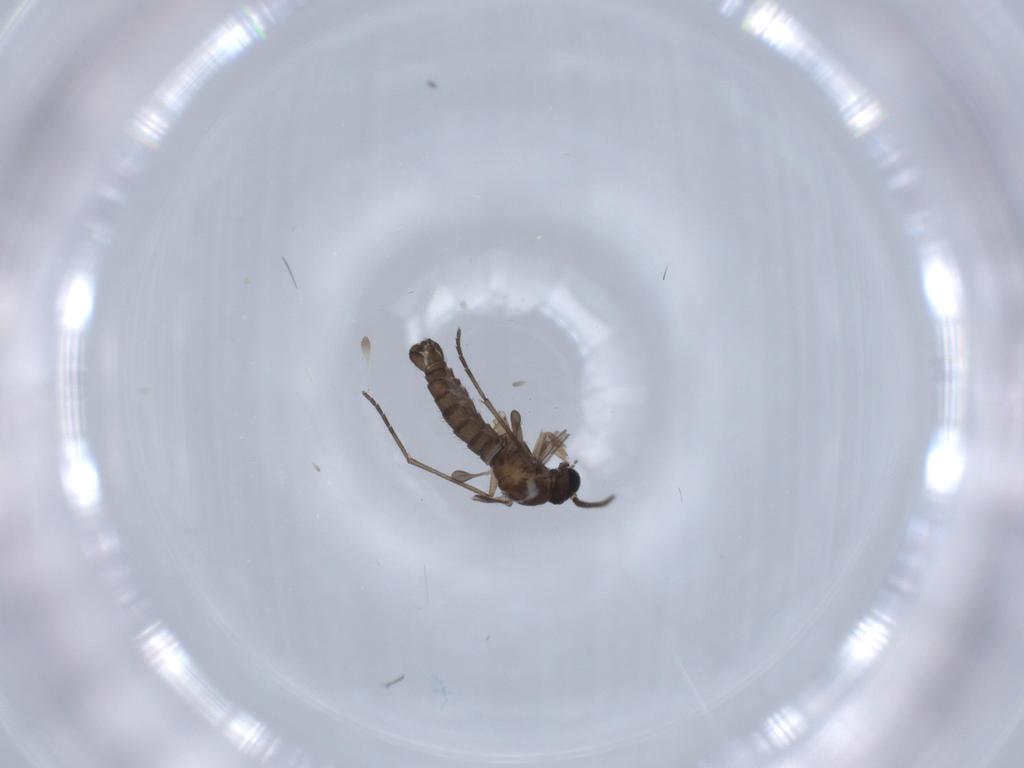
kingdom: Animalia
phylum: Arthropoda
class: Insecta
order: Diptera
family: Sciaridae
